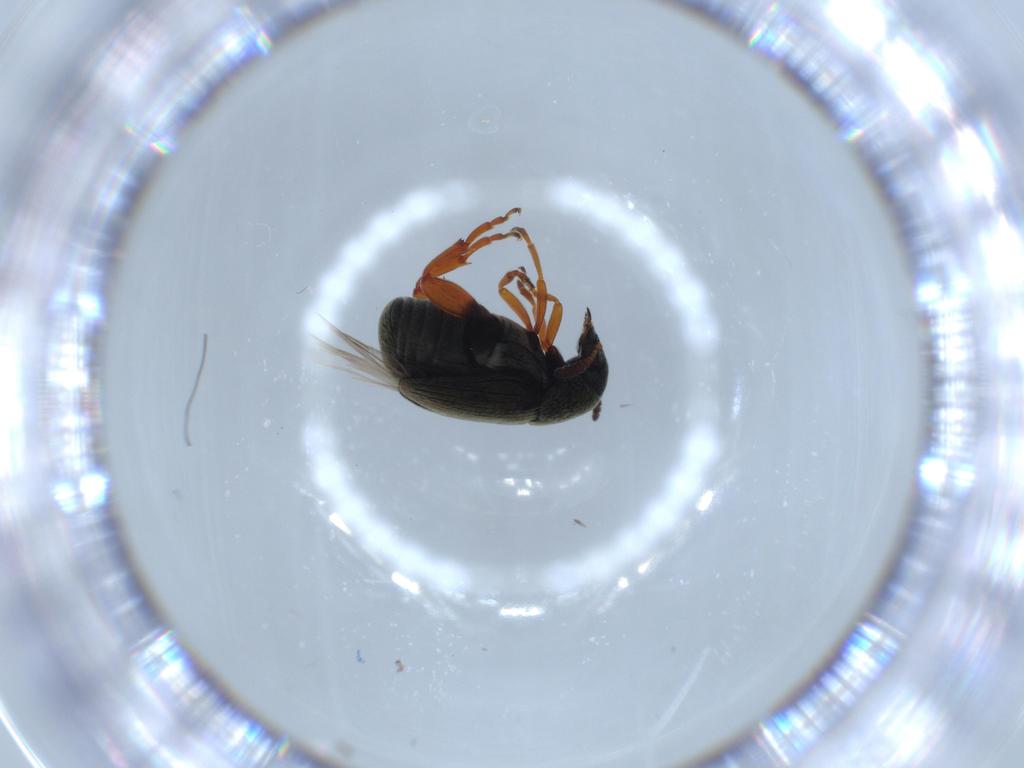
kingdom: Animalia
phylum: Arthropoda
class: Insecta
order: Coleoptera
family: Chrysomelidae
